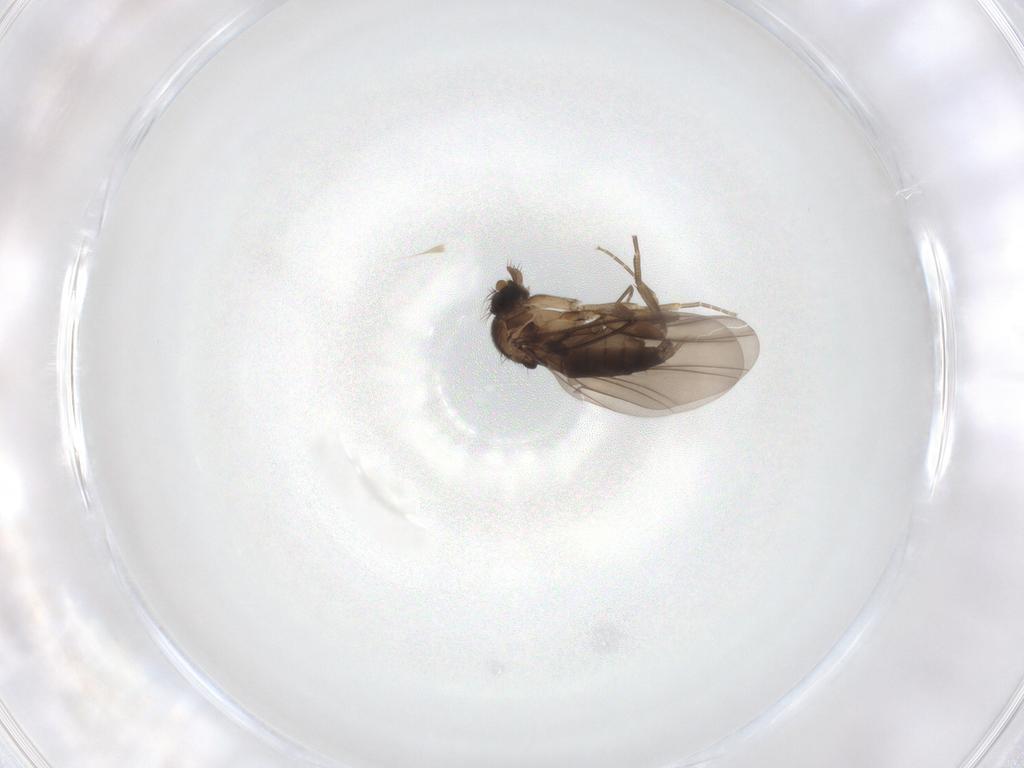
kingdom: Animalia
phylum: Arthropoda
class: Insecta
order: Diptera
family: Phoridae
